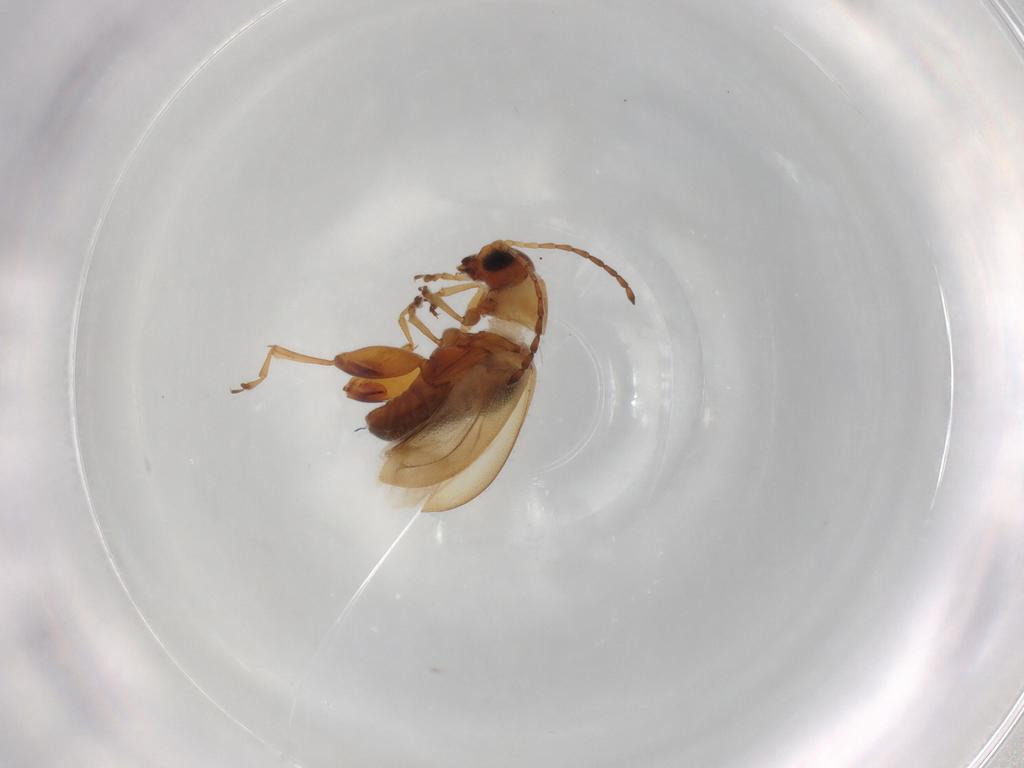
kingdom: Animalia
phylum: Arthropoda
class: Insecta
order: Coleoptera
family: Chrysomelidae
